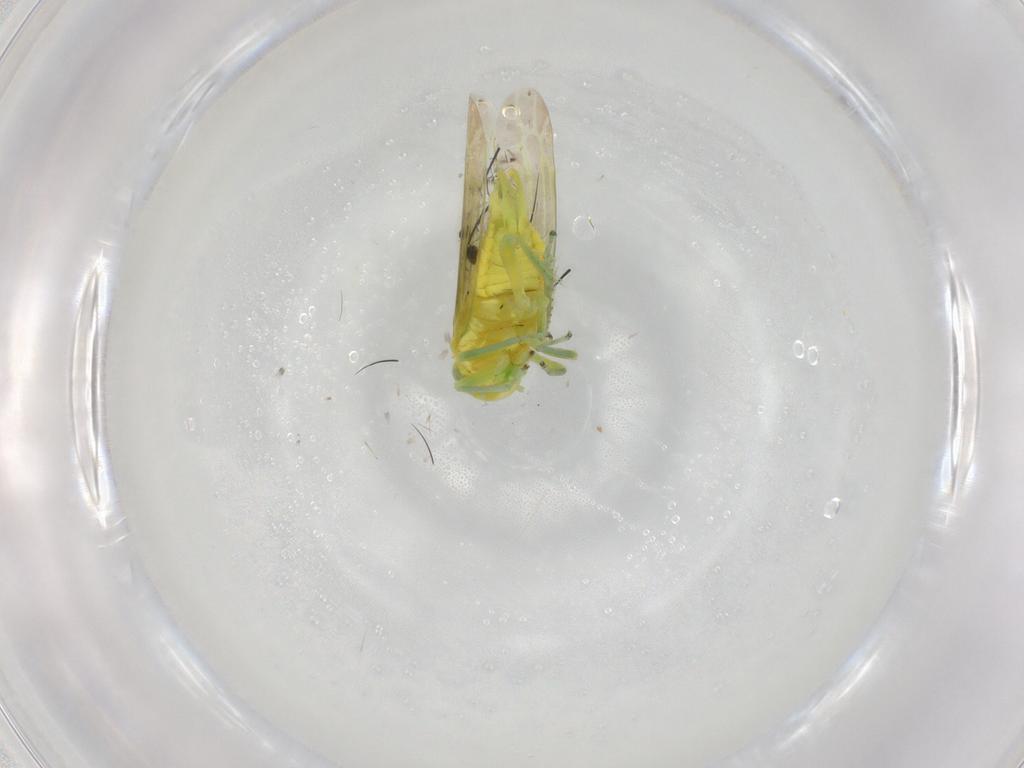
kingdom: Animalia
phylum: Arthropoda
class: Insecta
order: Hemiptera
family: Cicadellidae
